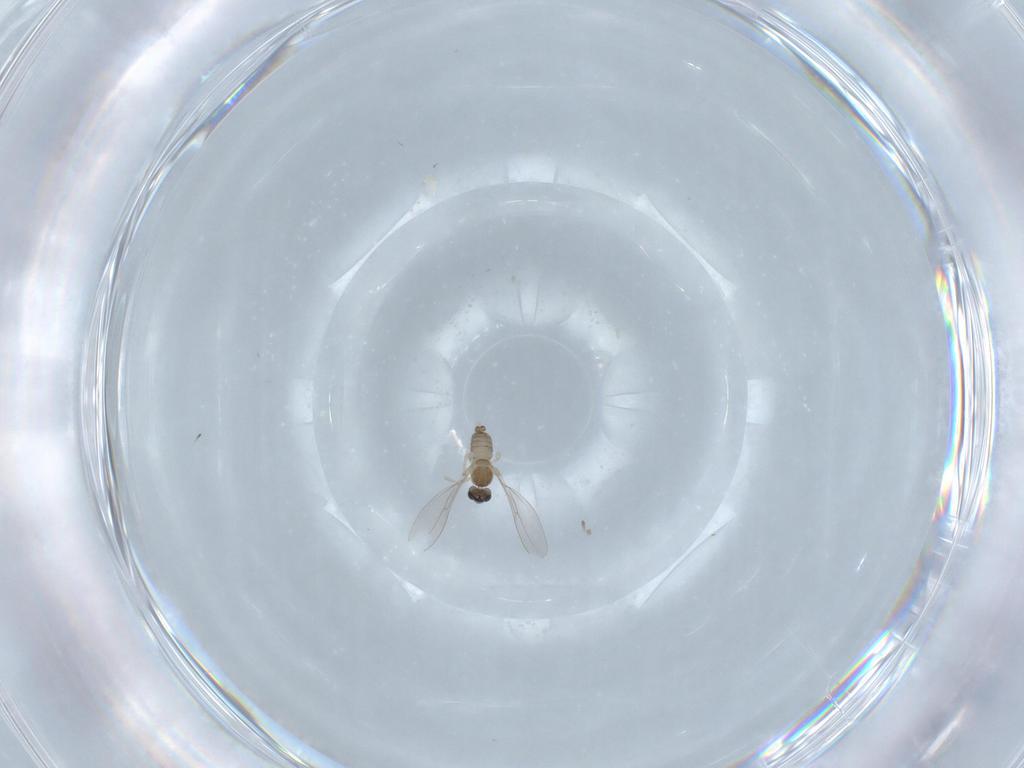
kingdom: Animalia
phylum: Arthropoda
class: Insecta
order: Diptera
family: Cecidomyiidae
